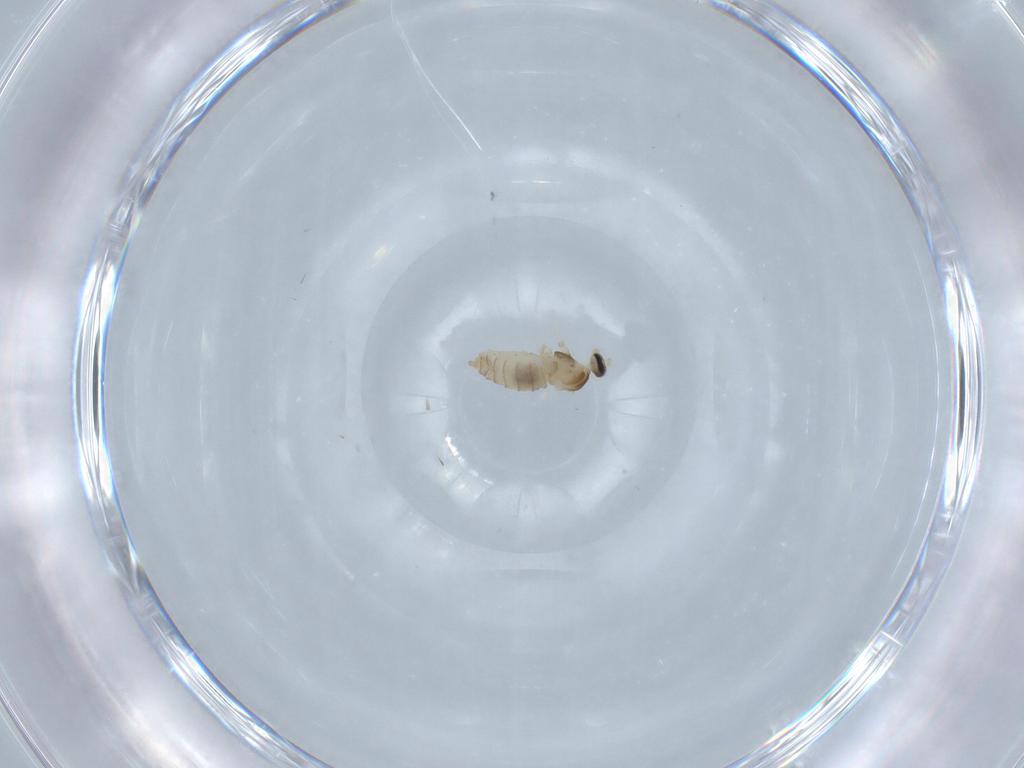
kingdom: Animalia
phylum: Arthropoda
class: Insecta
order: Diptera
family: Cecidomyiidae
